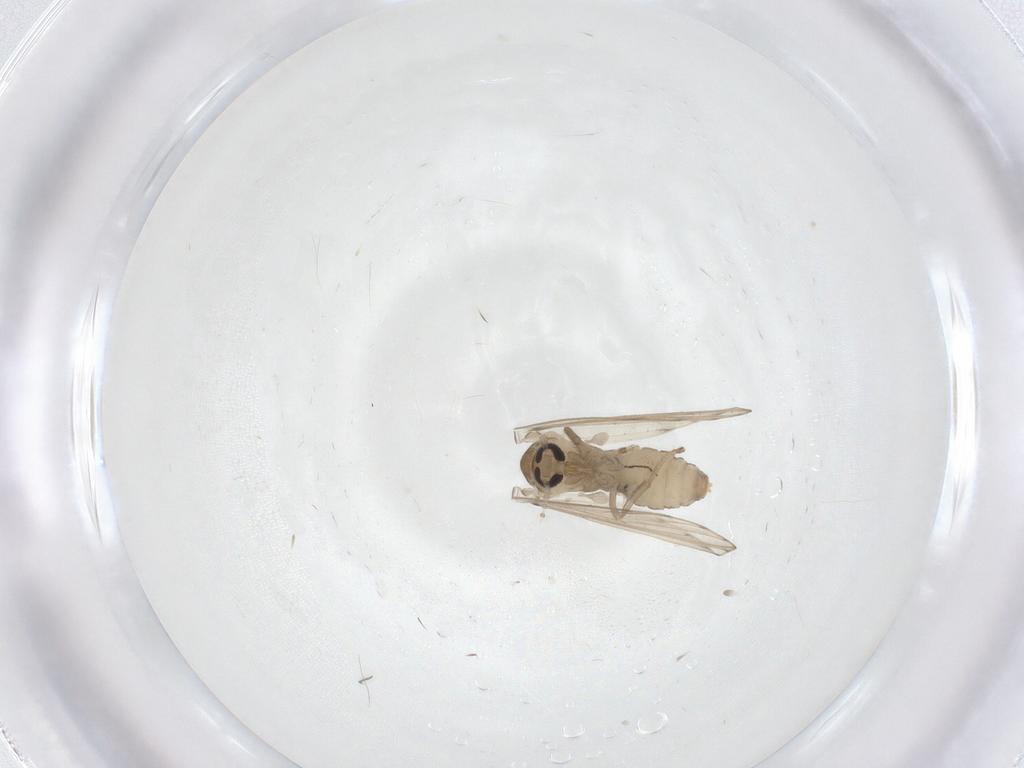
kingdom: Animalia
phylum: Arthropoda
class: Insecta
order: Diptera
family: Psychodidae
